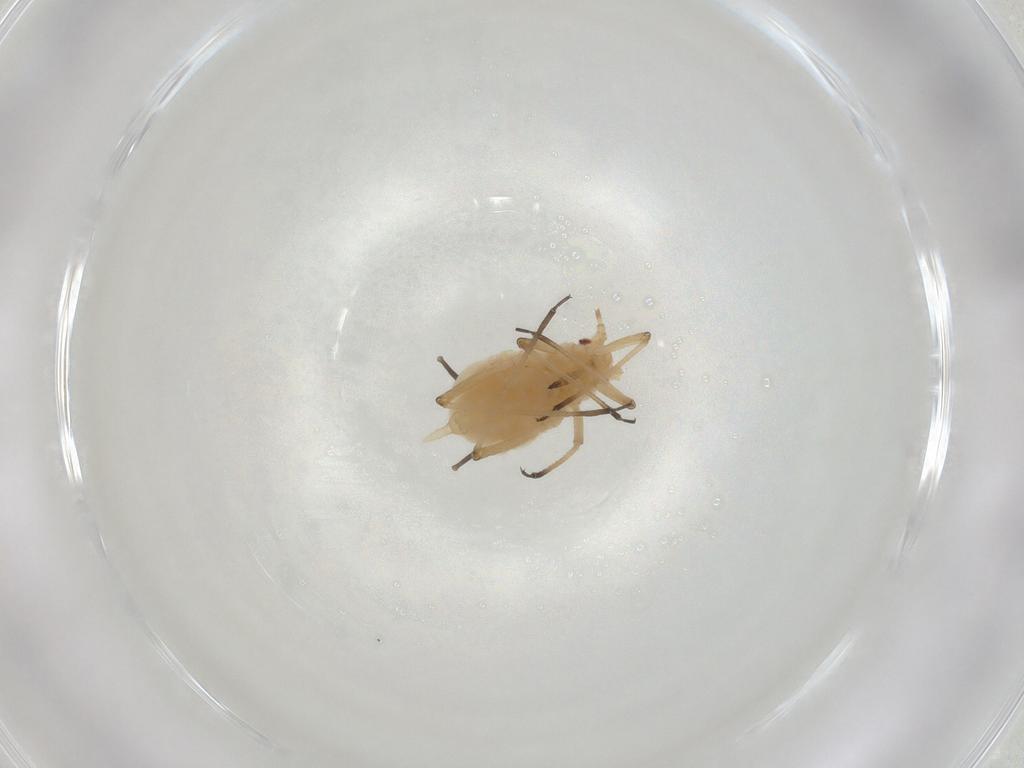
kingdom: Animalia
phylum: Arthropoda
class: Insecta
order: Hemiptera
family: Aphididae
